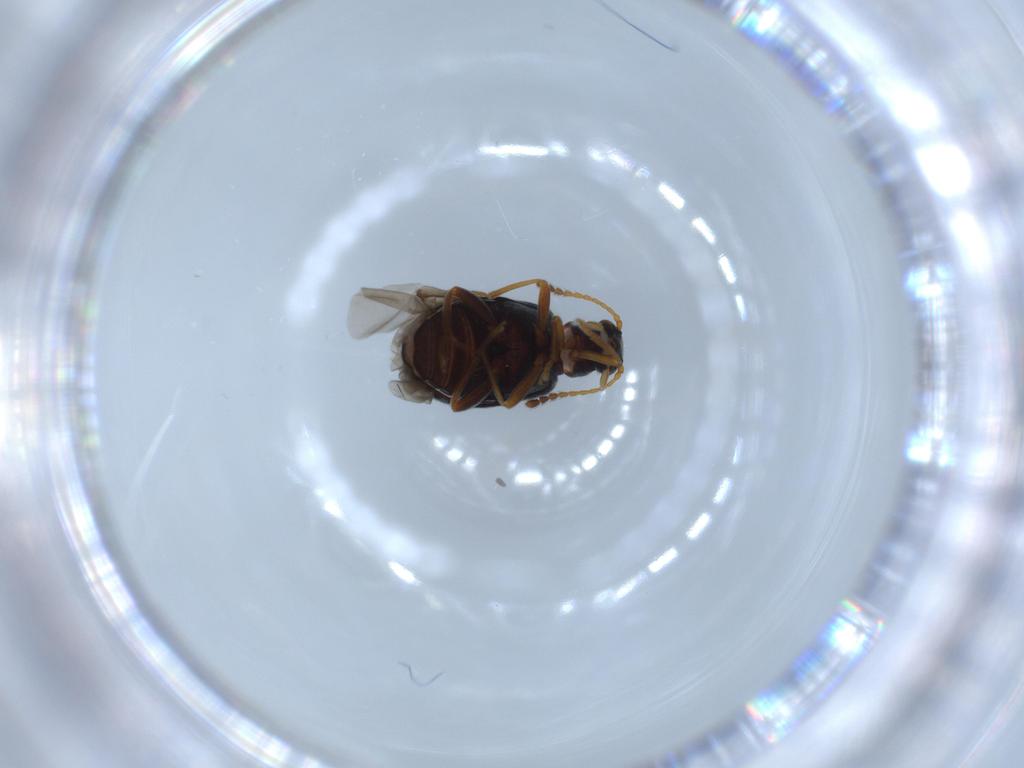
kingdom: Animalia
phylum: Arthropoda
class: Insecta
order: Coleoptera
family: Aderidae
